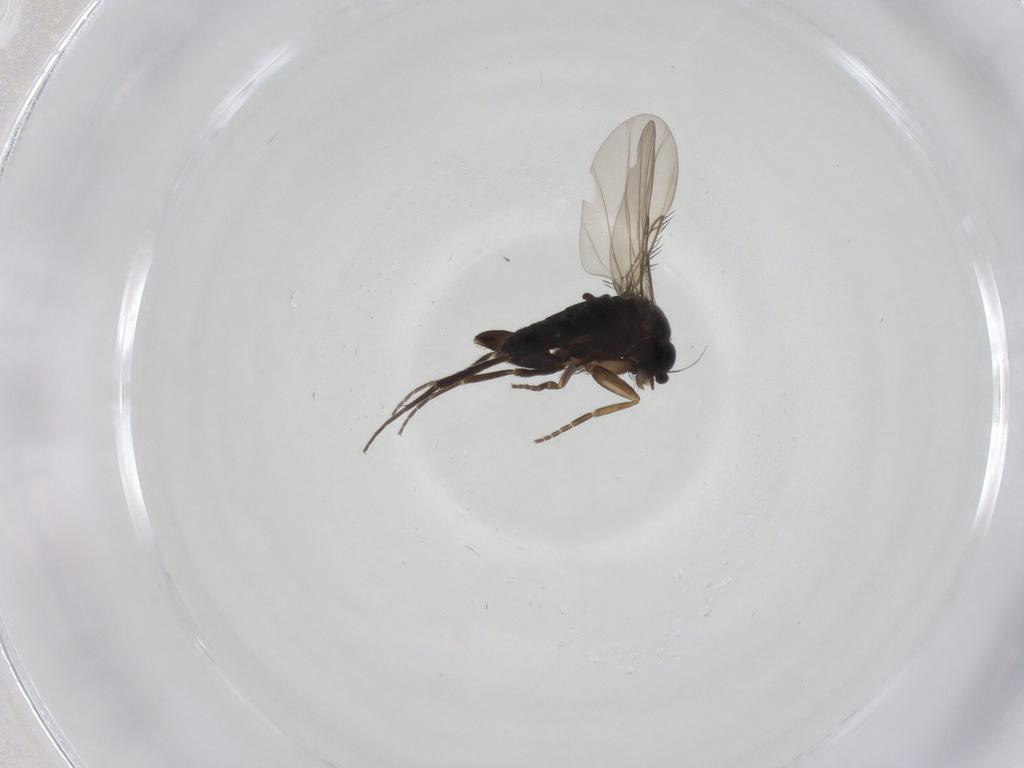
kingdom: Animalia
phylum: Arthropoda
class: Insecta
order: Diptera
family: Phoridae
